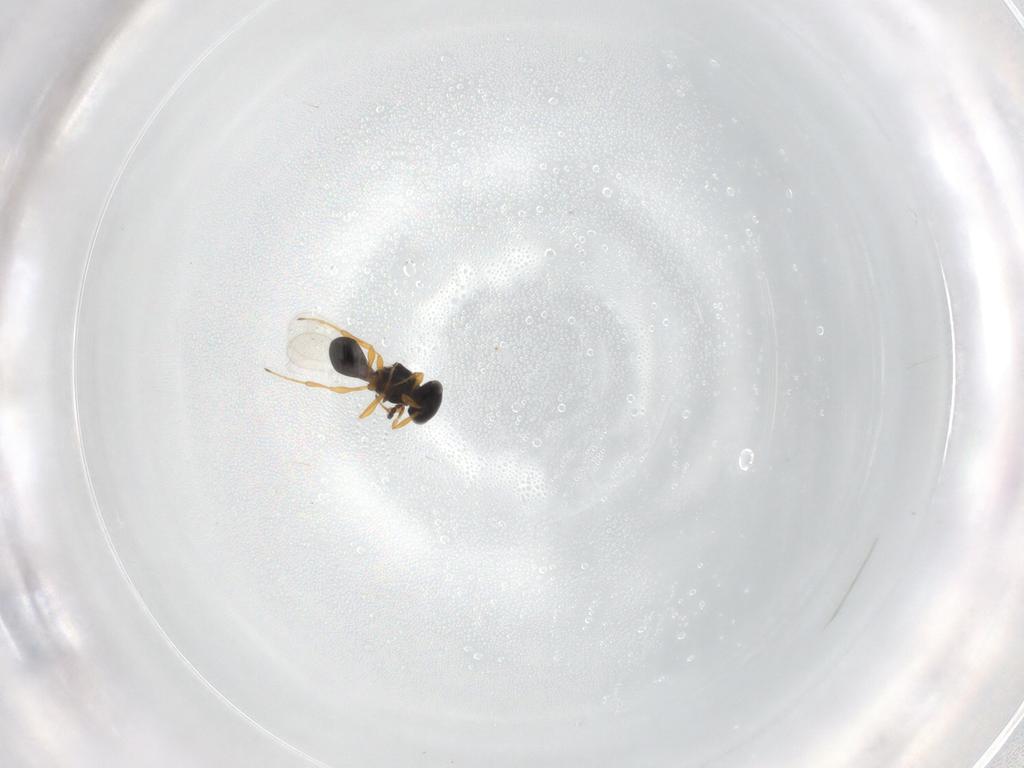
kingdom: Animalia
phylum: Arthropoda
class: Insecta
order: Hymenoptera
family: Platygastridae
